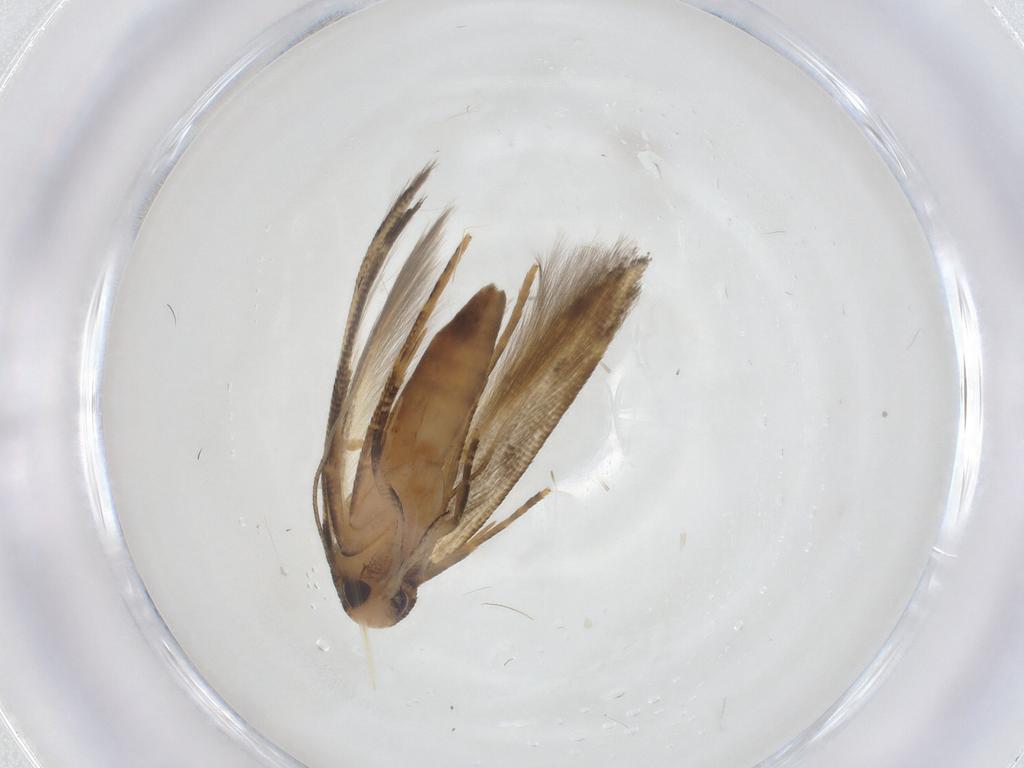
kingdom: Animalia
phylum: Arthropoda
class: Insecta
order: Lepidoptera
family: Cosmopterigidae
